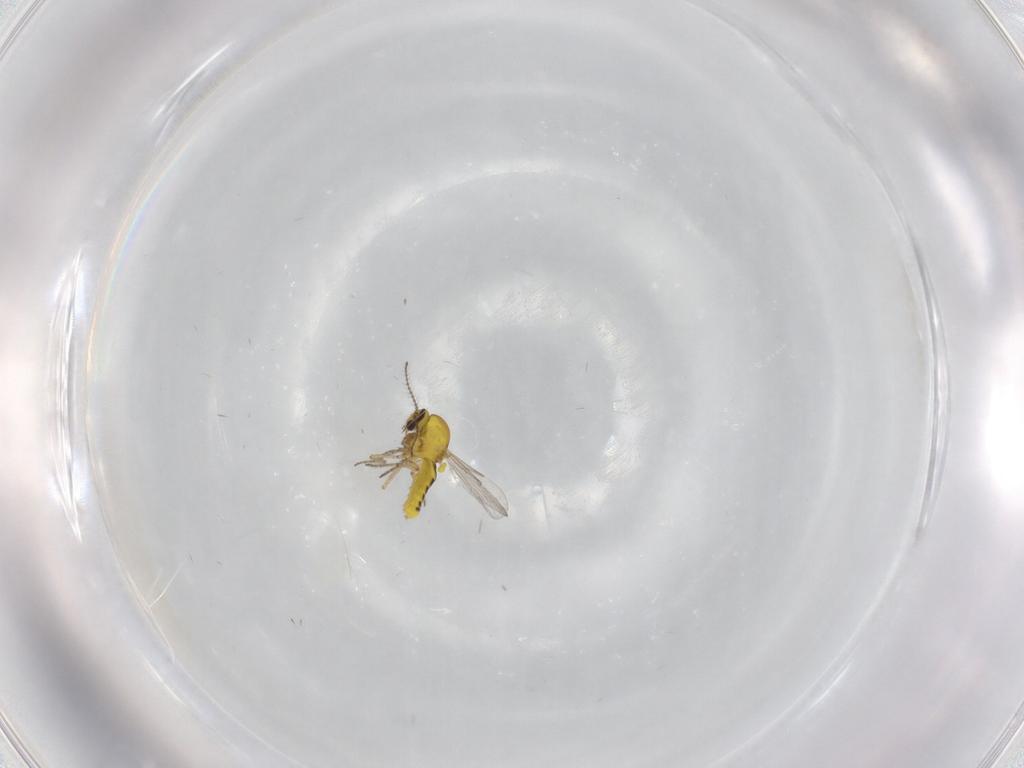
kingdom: Animalia
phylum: Arthropoda
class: Insecta
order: Diptera
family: Ceratopogonidae
